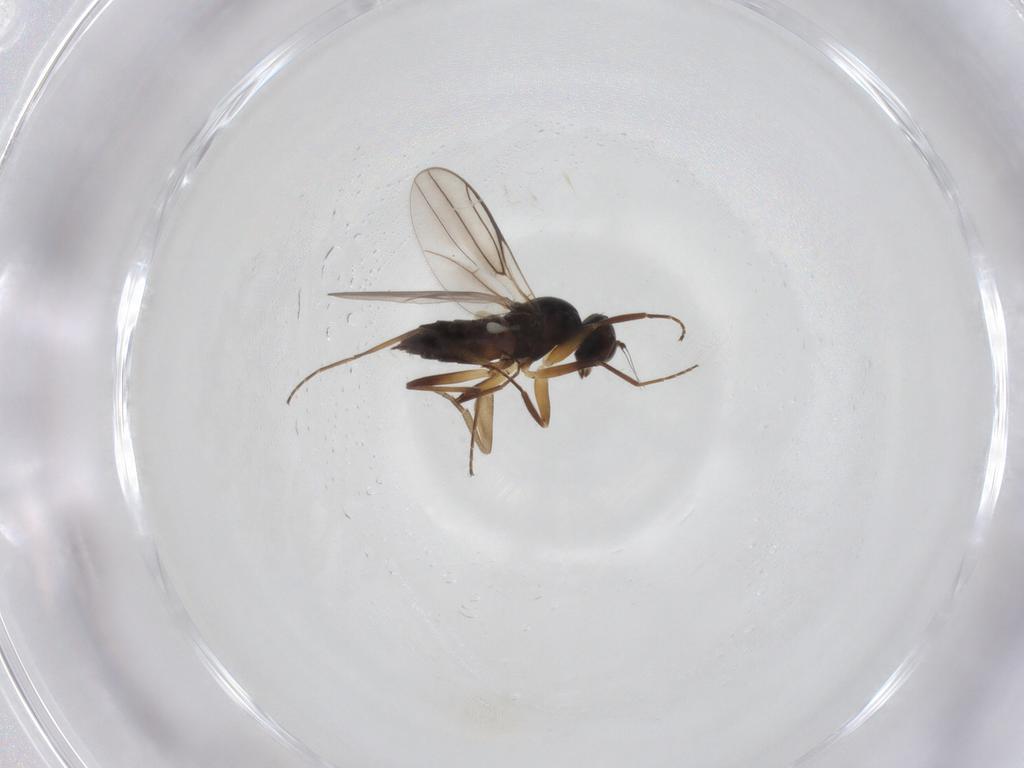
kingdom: Animalia
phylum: Arthropoda
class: Insecta
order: Diptera
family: Hybotidae
